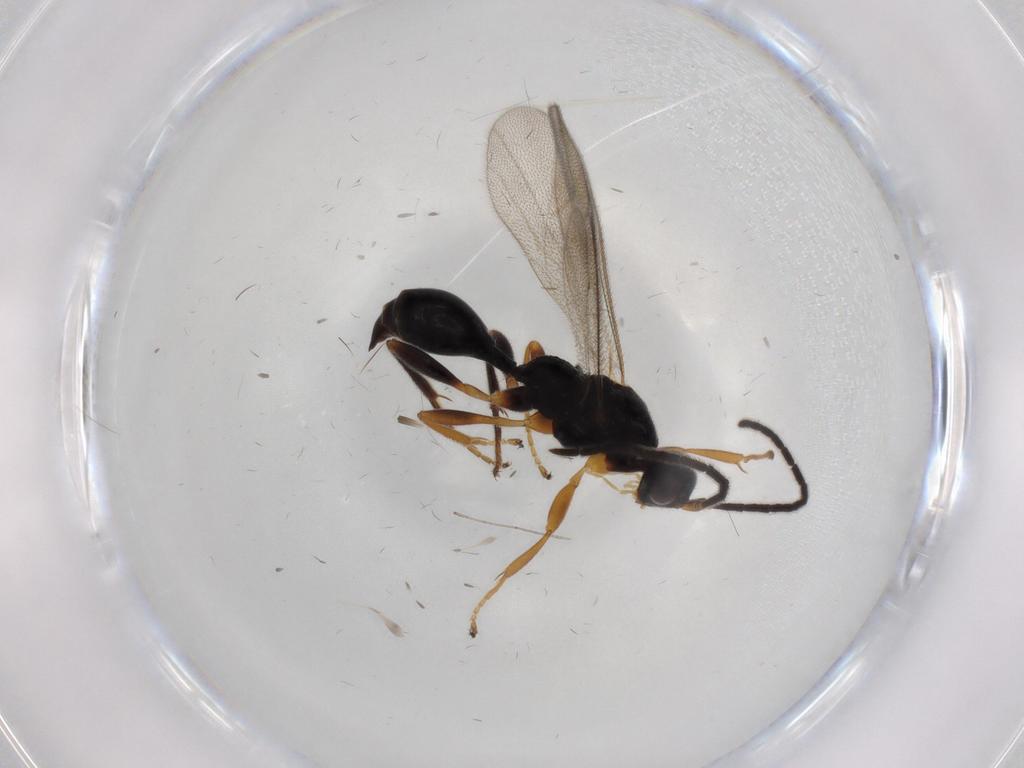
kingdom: Animalia
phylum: Arthropoda
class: Insecta
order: Hymenoptera
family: Proctotrupidae
